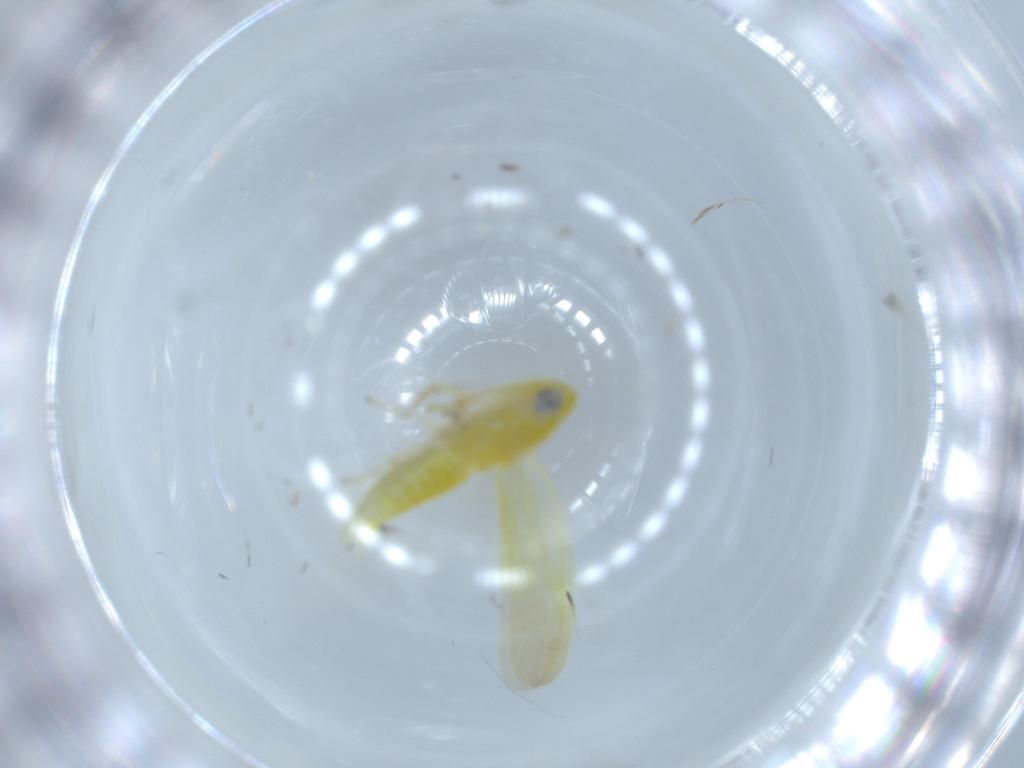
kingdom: Animalia
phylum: Arthropoda
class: Insecta
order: Hemiptera
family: Cicadellidae
